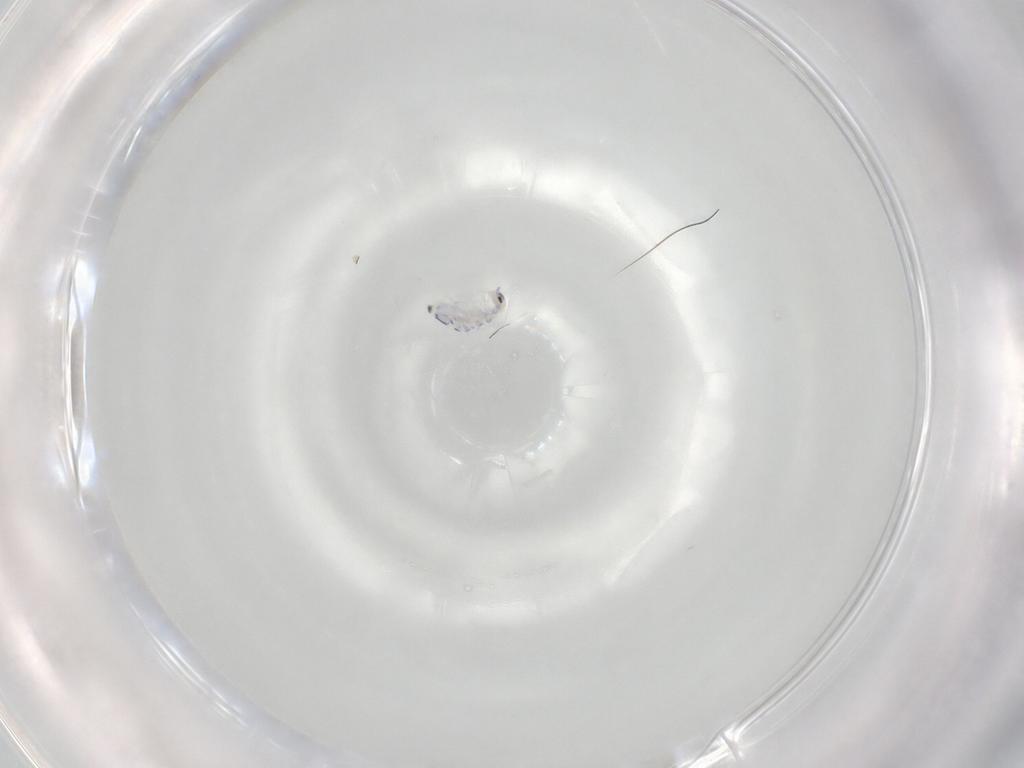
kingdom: Animalia
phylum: Arthropoda
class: Collembola
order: Entomobryomorpha
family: Entomobryidae
